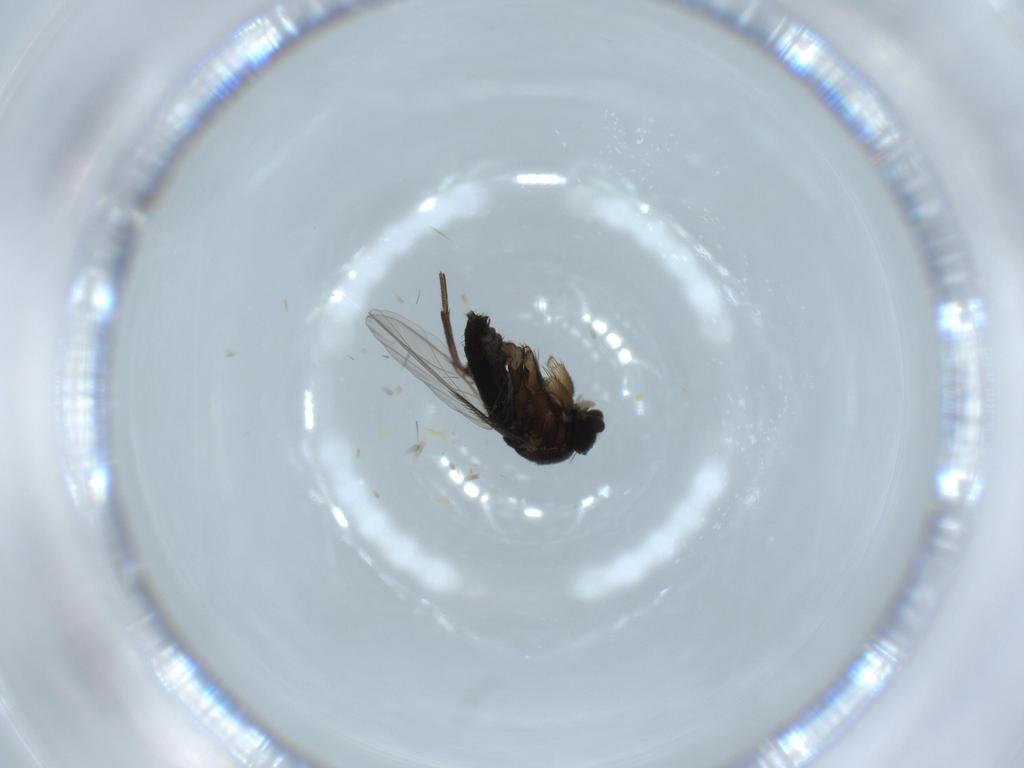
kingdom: Animalia
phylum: Arthropoda
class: Insecta
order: Diptera
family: Phoridae
